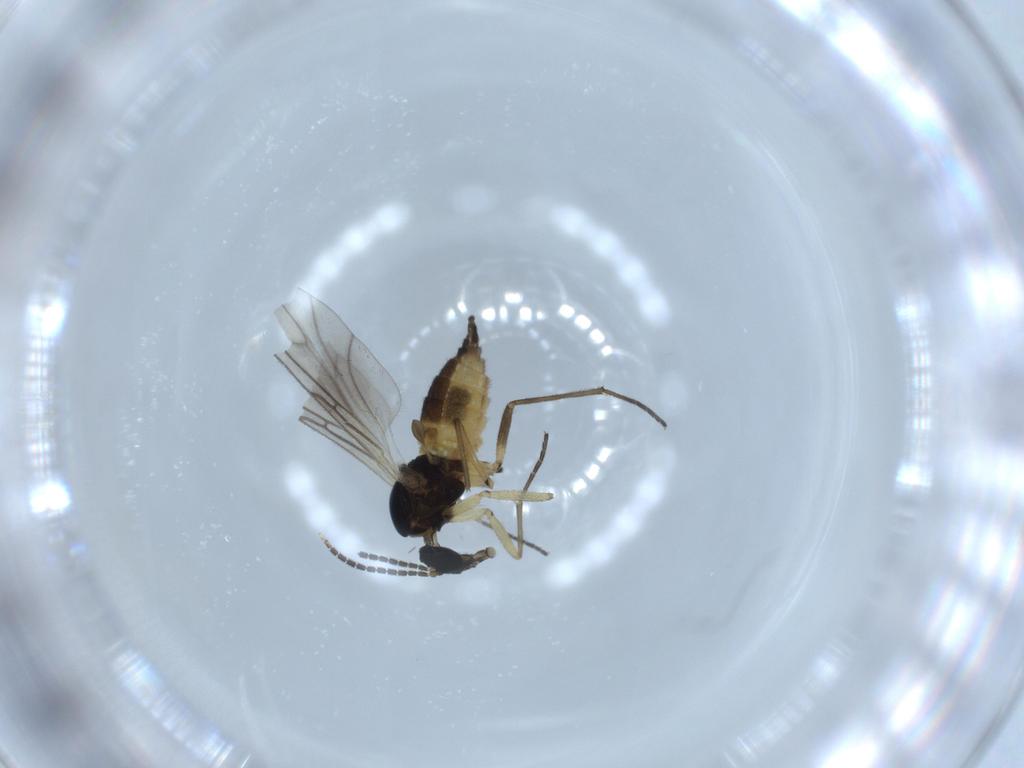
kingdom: Animalia
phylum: Arthropoda
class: Insecta
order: Diptera
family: Sciaridae
